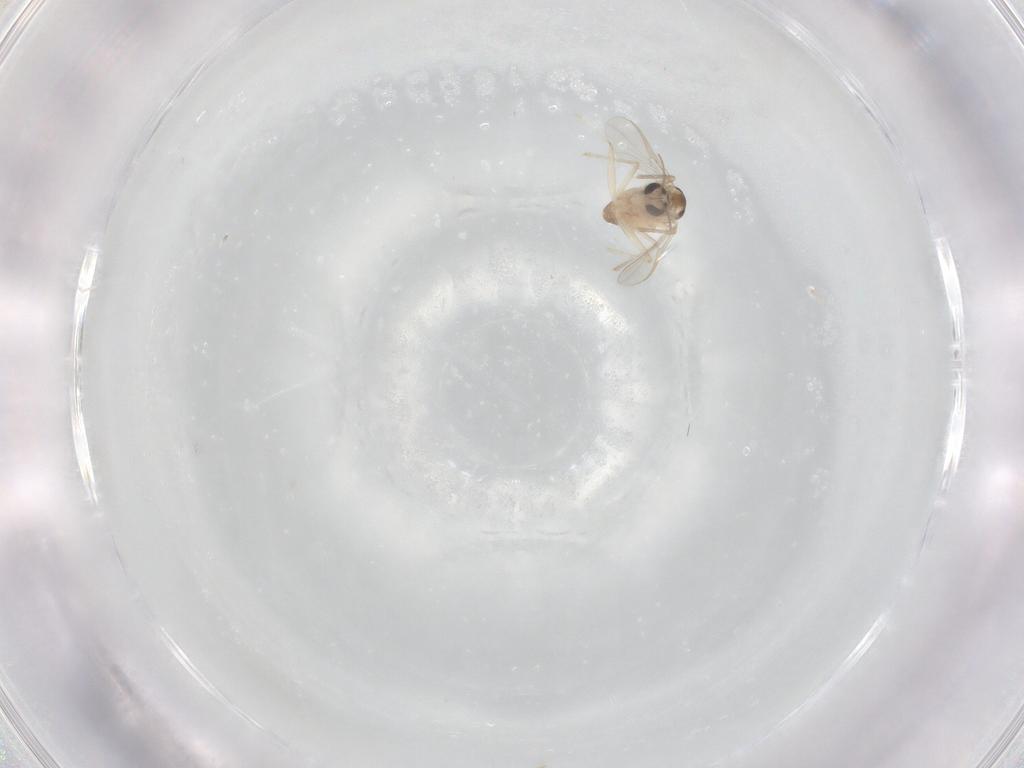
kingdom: Animalia
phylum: Arthropoda
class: Insecta
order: Diptera
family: Chironomidae
